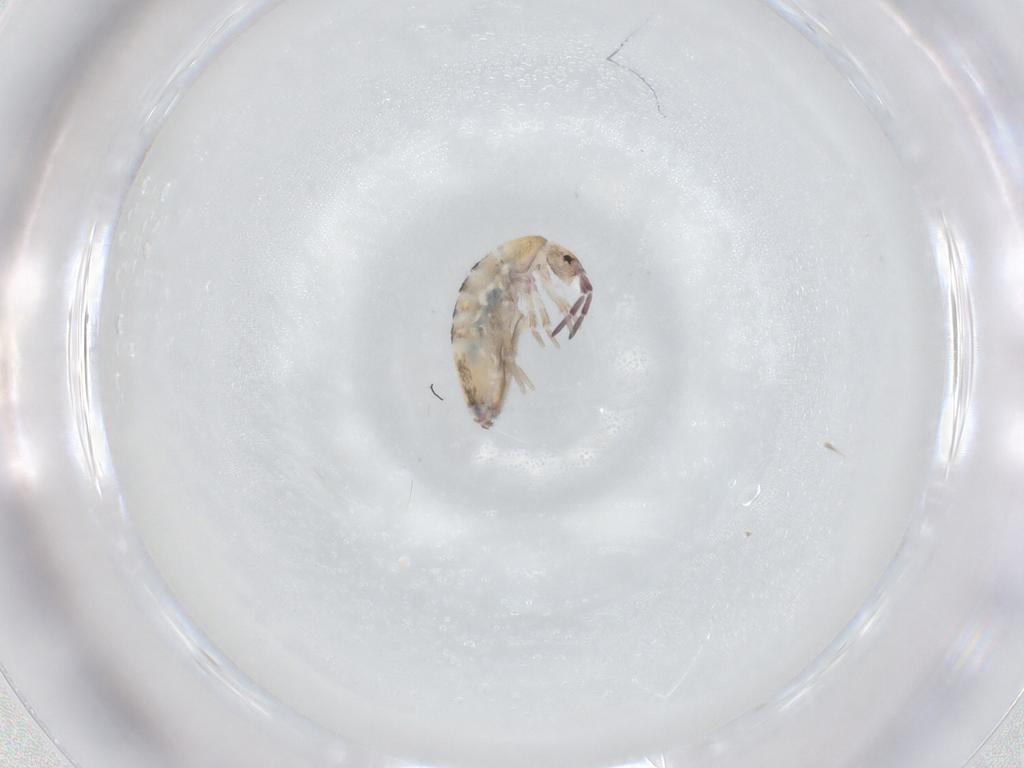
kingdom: Animalia
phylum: Arthropoda
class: Collembola
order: Entomobryomorpha
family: Entomobryidae
